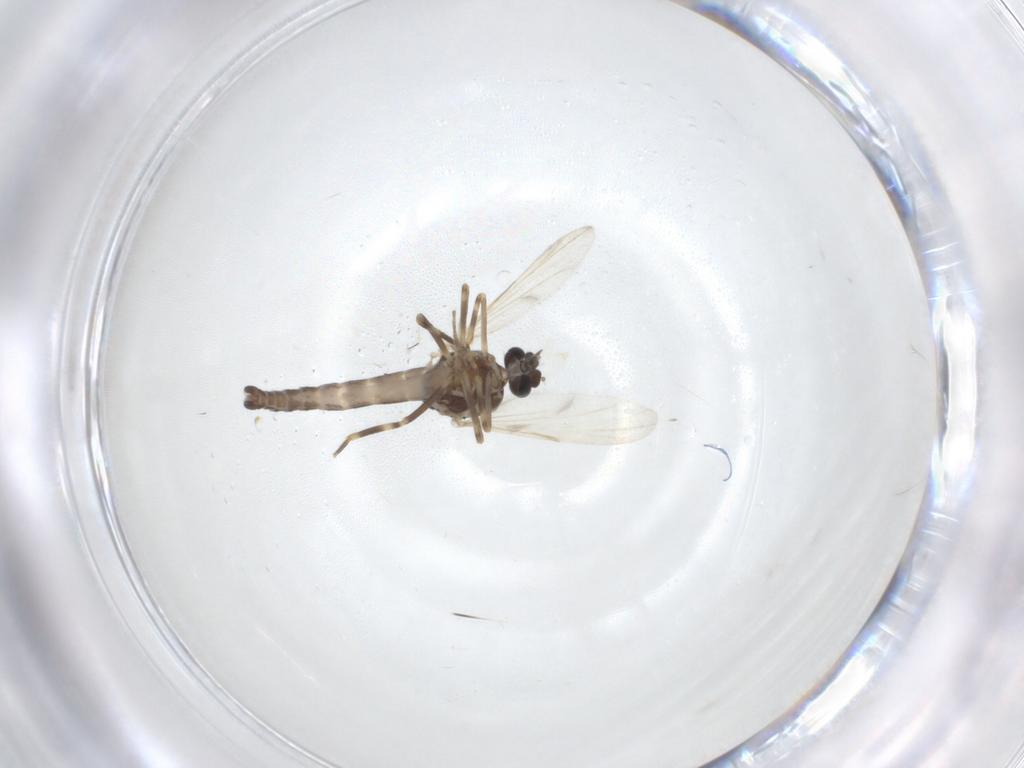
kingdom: Animalia
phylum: Arthropoda
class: Insecta
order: Diptera
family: Ceratopogonidae
